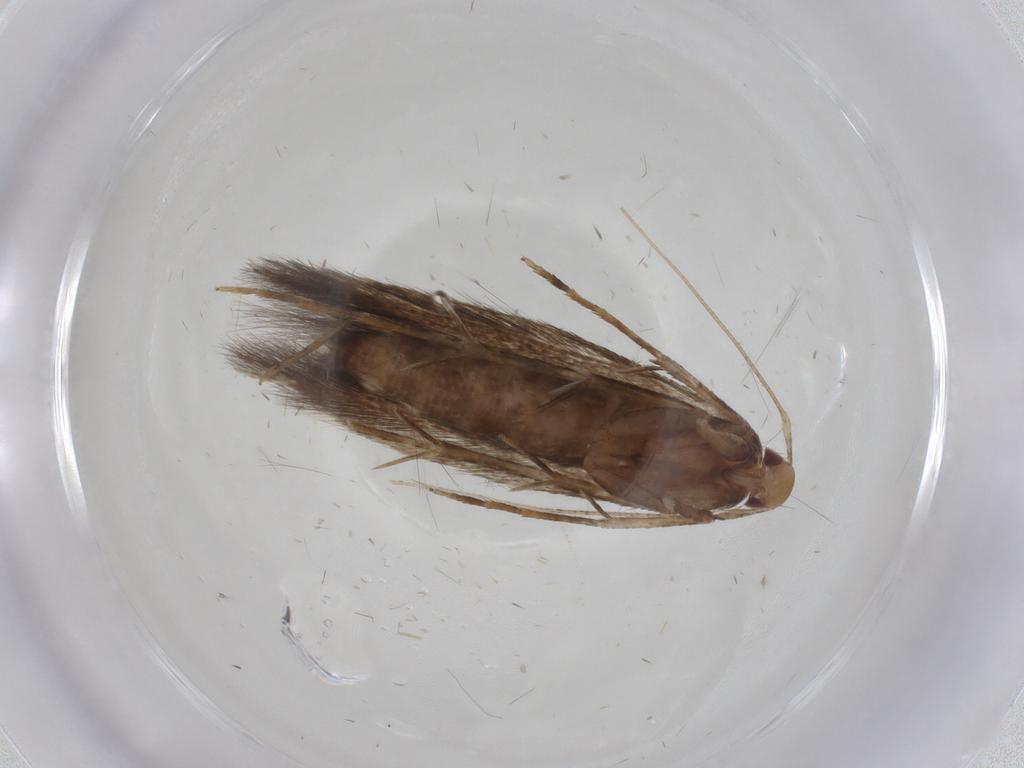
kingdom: Animalia
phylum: Arthropoda
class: Insecta
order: Lepidoptera
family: Cosmopterigidae
